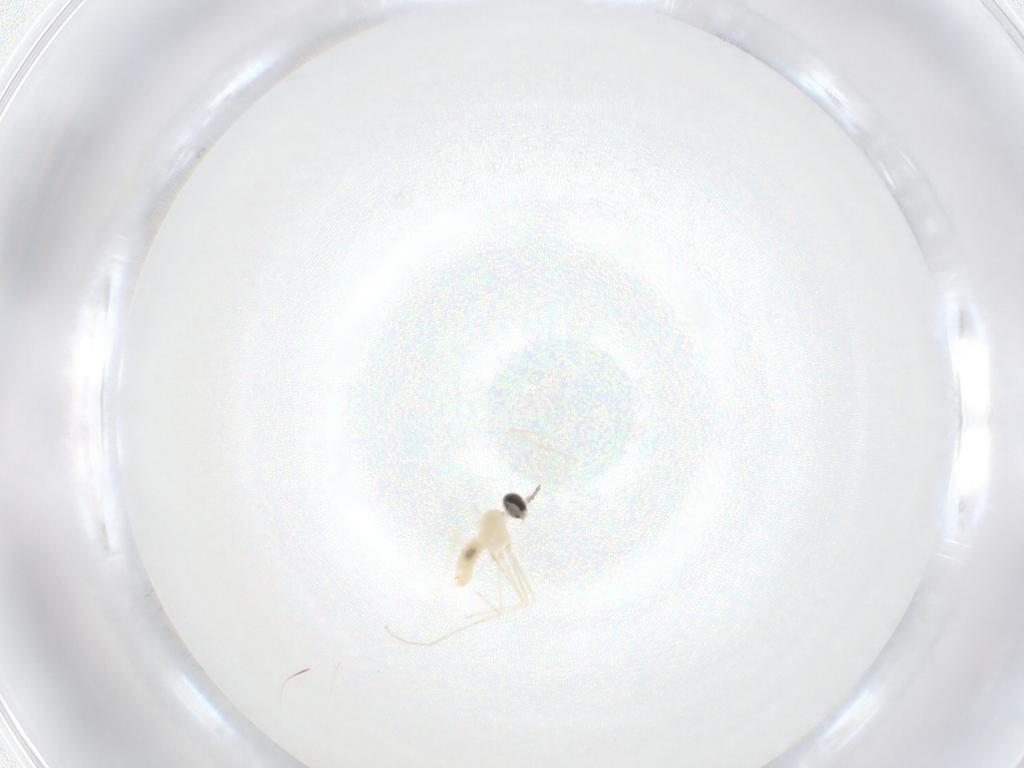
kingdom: Animalia
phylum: Arthropoda
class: Insecta
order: Diptera
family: Cecidomyiidae
